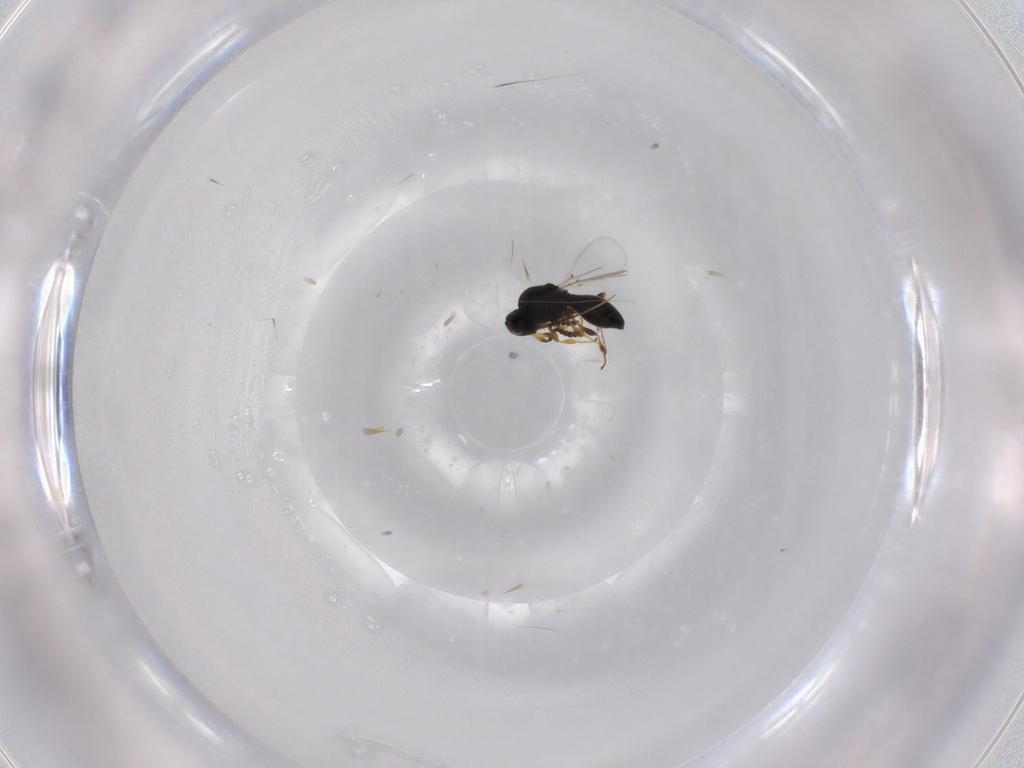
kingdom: Animalia
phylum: Arthropoda
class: Insecta
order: Hymenoptera
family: Platygastridae
